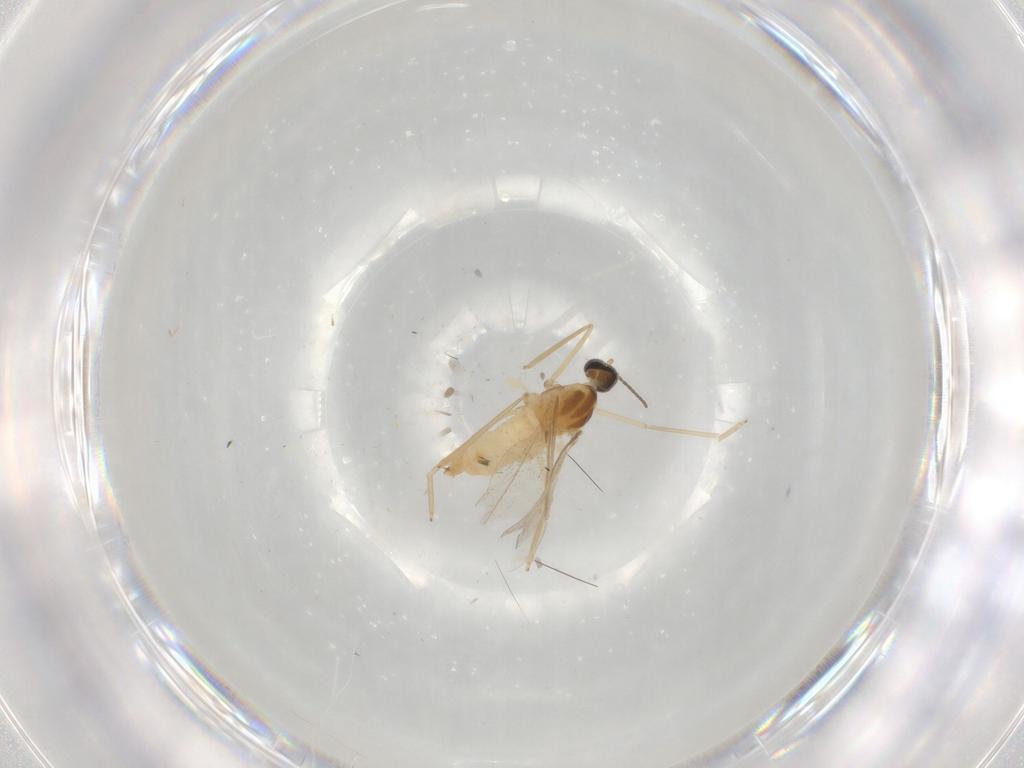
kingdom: Animalia
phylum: Arthropoda
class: Insecta
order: Diptera
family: Cecidomyiidae
